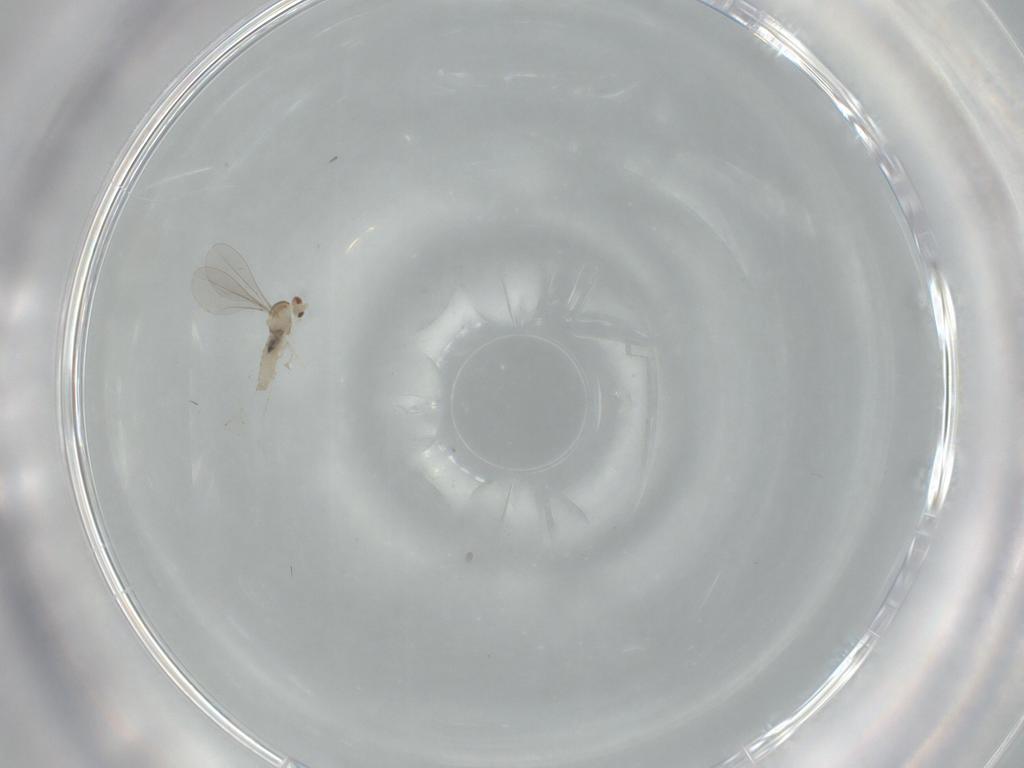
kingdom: Animalia
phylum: Arthropoda
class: Insecta
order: Diptera
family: Cecidomyiidae
